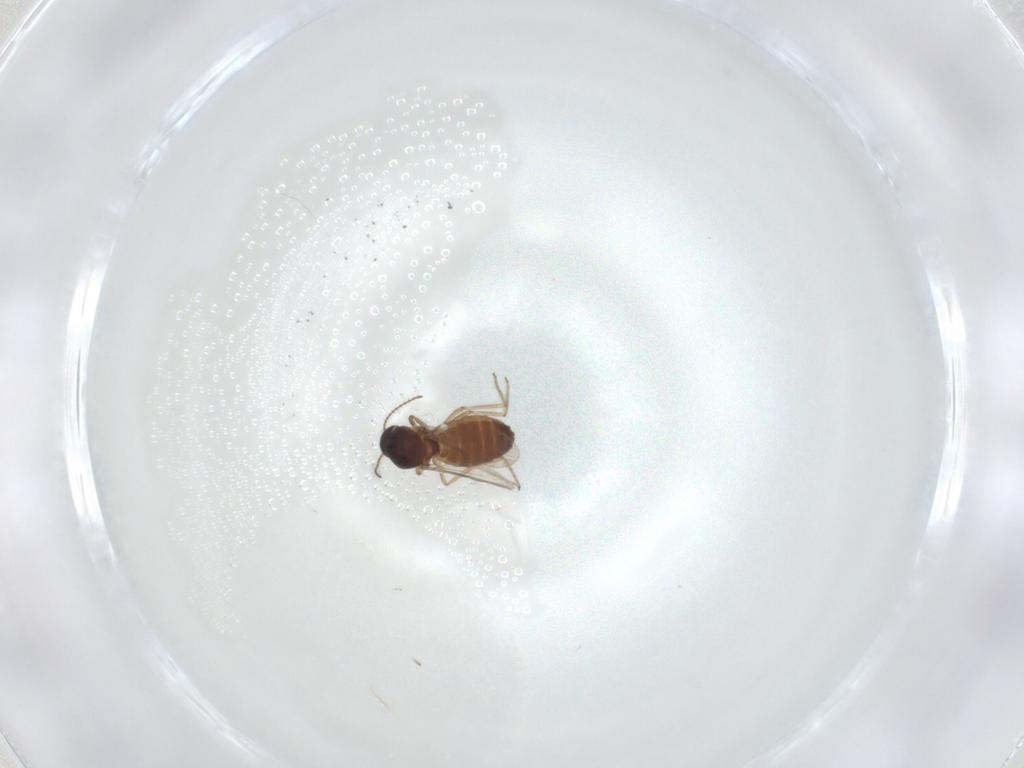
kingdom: Animalia
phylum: Arthropoda
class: Insecta
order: Diptera
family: Ceratopogonidae
